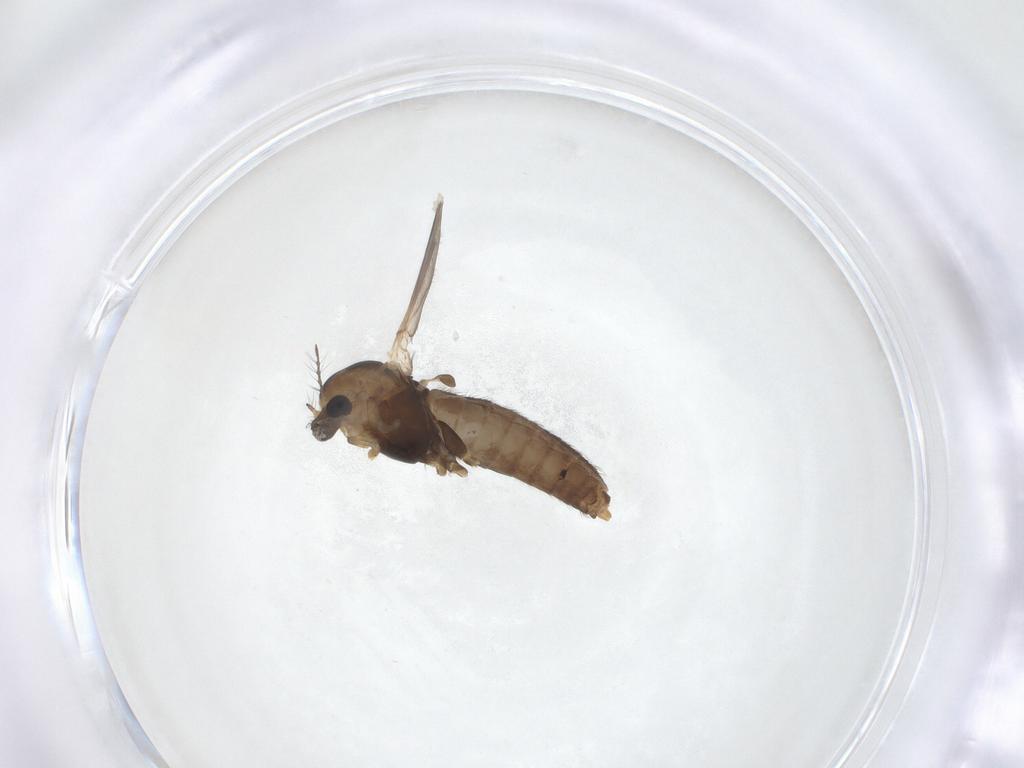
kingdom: Animalia
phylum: Arthropoda
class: Insecta
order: Diptera
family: Chironomidae
